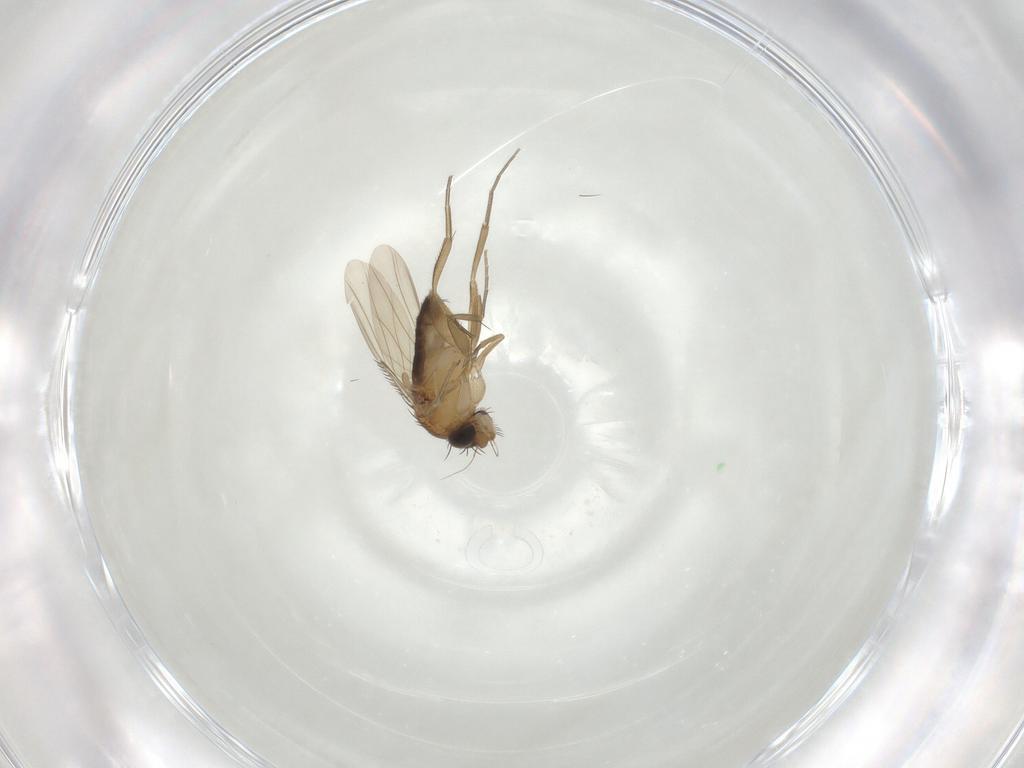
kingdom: Animalia
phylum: Arthropoda
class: Insecta
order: Diptera
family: Phoridae
